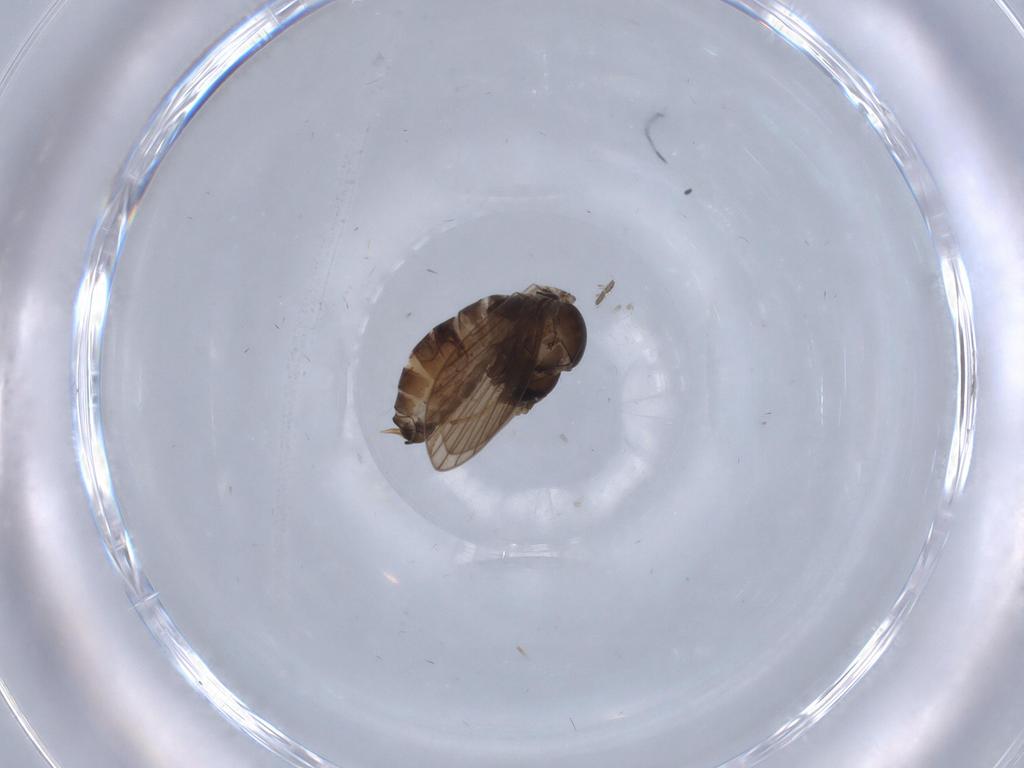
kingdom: Animalia
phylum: Arthropoda
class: Insecta
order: Diptera
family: Psychodidae
